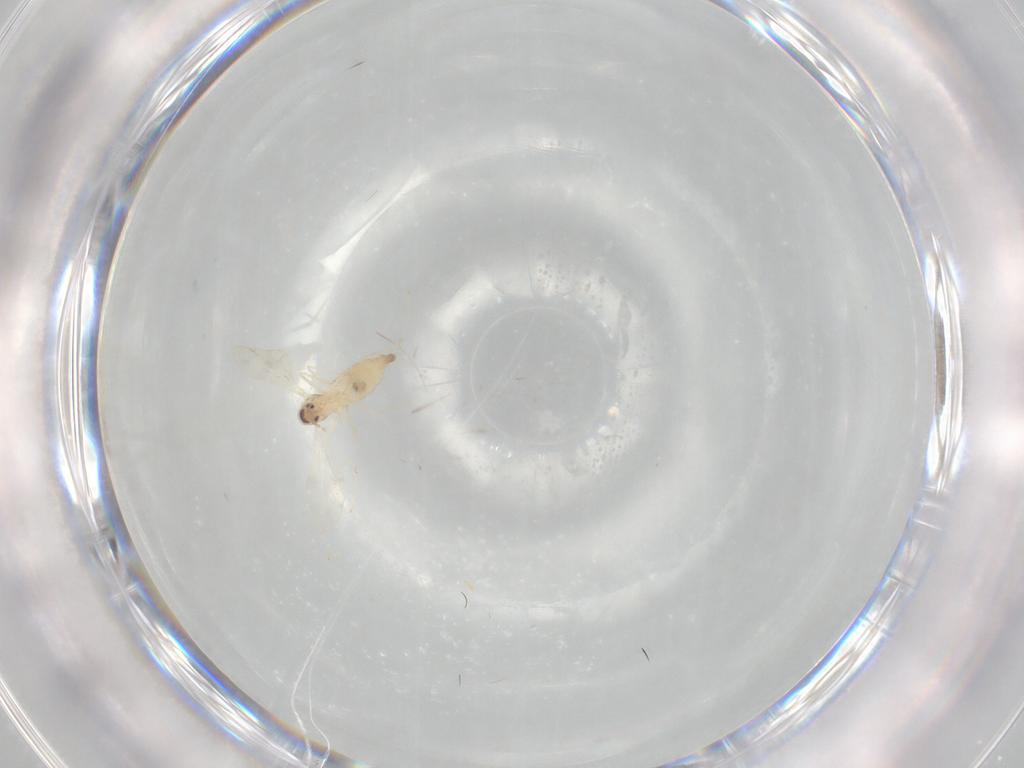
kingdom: Animalia
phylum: Arthropoda
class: Insecta
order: Diptera
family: Cecidomyiidae
